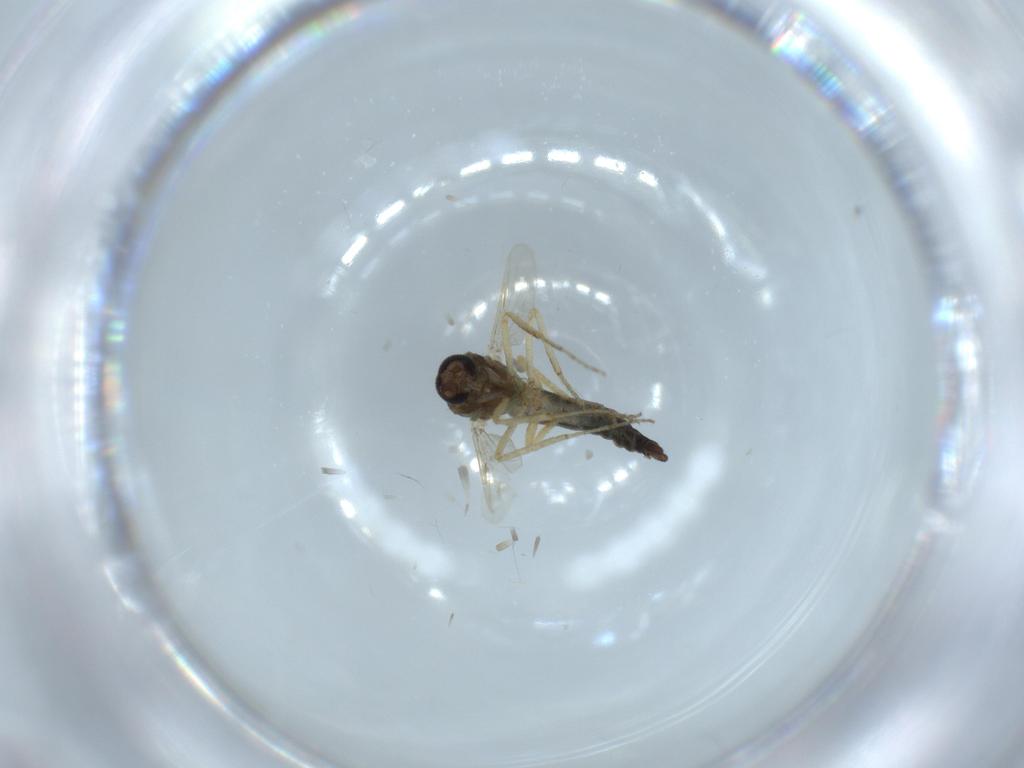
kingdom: Animalia
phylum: Arthropoda
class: Insecta
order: Diptera
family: Ceratopogonidae
